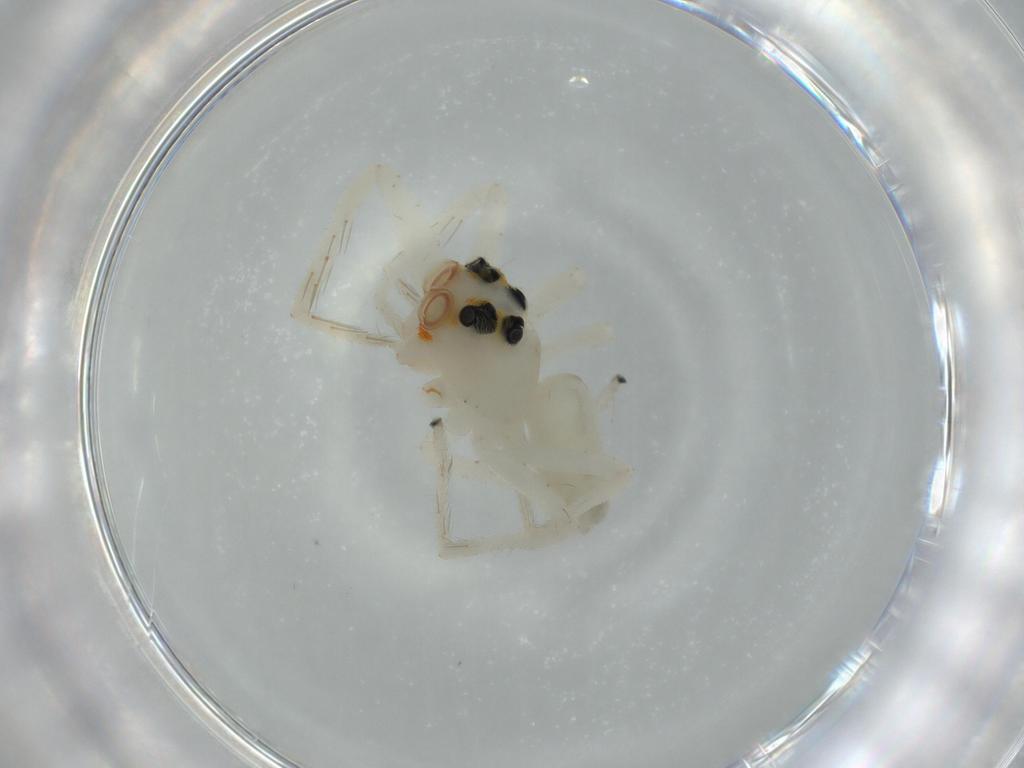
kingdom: Animalia
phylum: Arthropoda
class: Arachnida
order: Araneae
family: Salticidae
